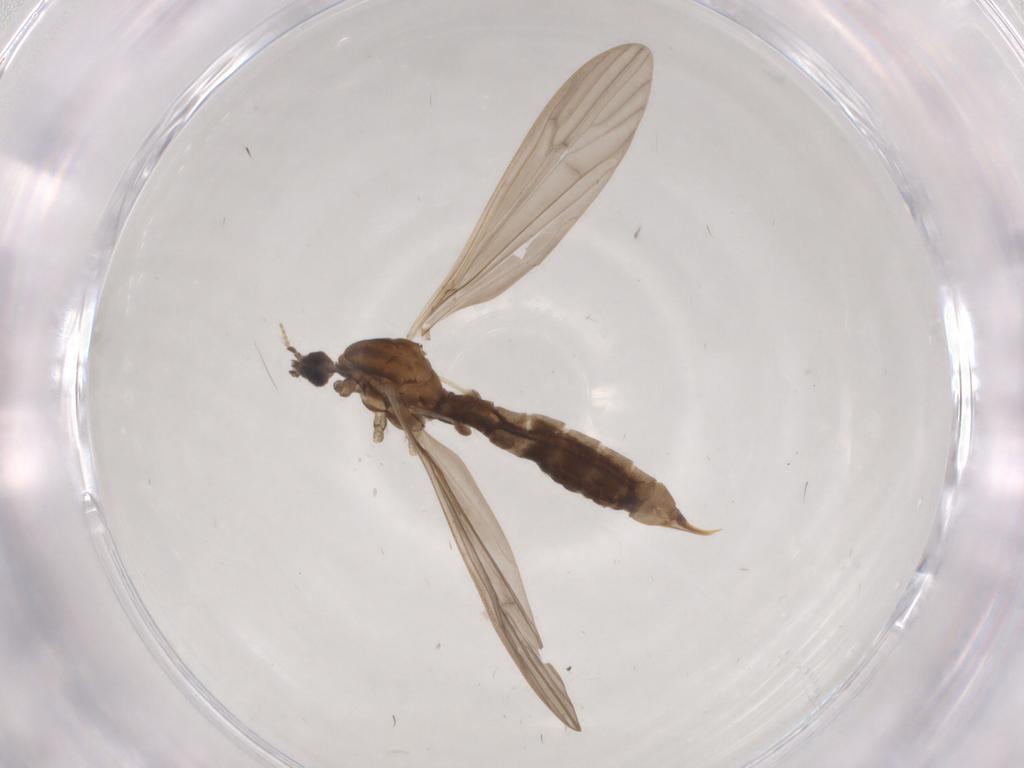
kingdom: Animalia
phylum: Arthropoda
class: Insecta
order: Diptera
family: Limoniidae
